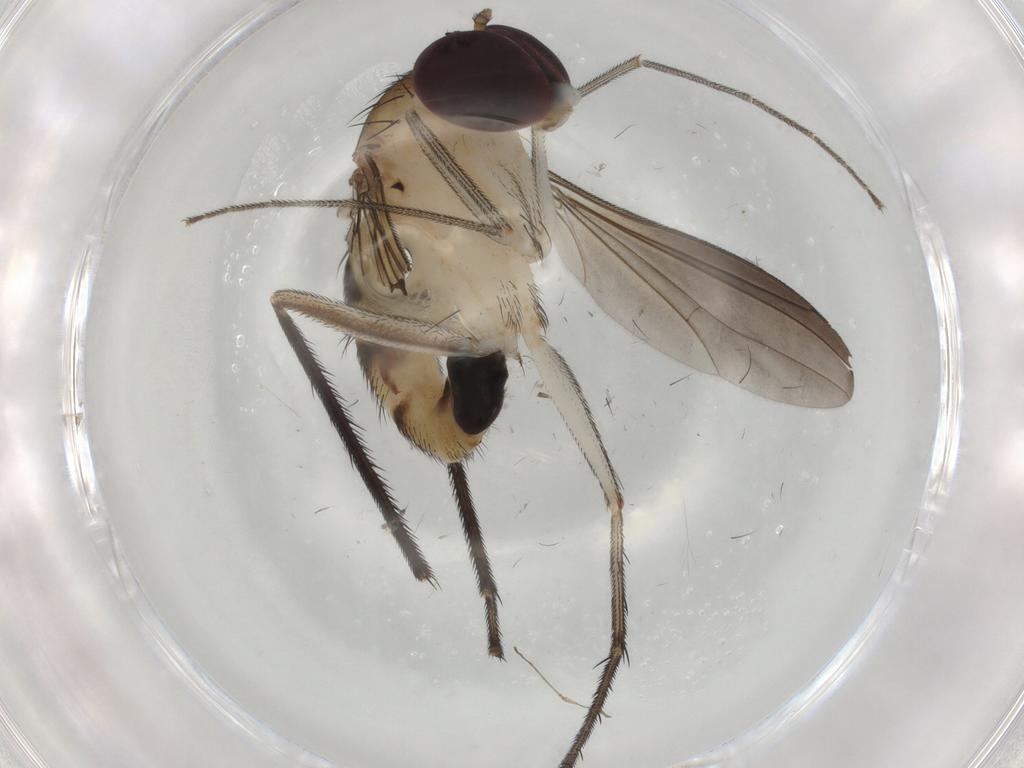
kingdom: Animalia
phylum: Arthropoda
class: Insecta
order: Diptera
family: Dolichopodidae
